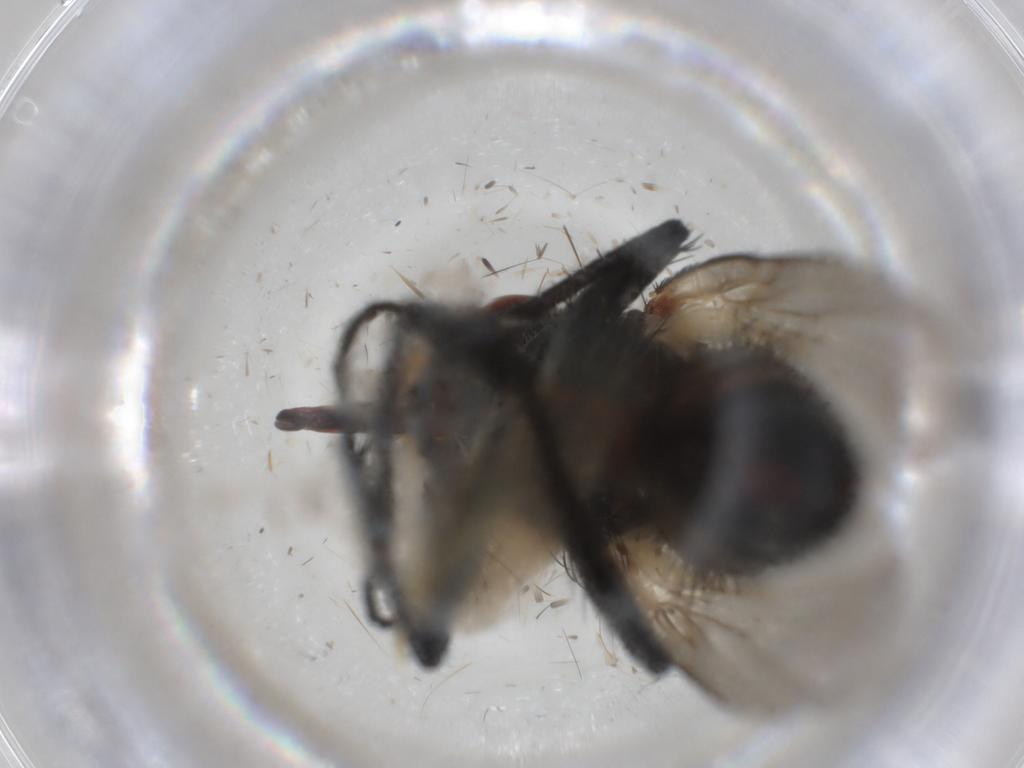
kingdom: Animalia
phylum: Arthropoda
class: Insecta
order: Diptera
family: Calliphoridae
